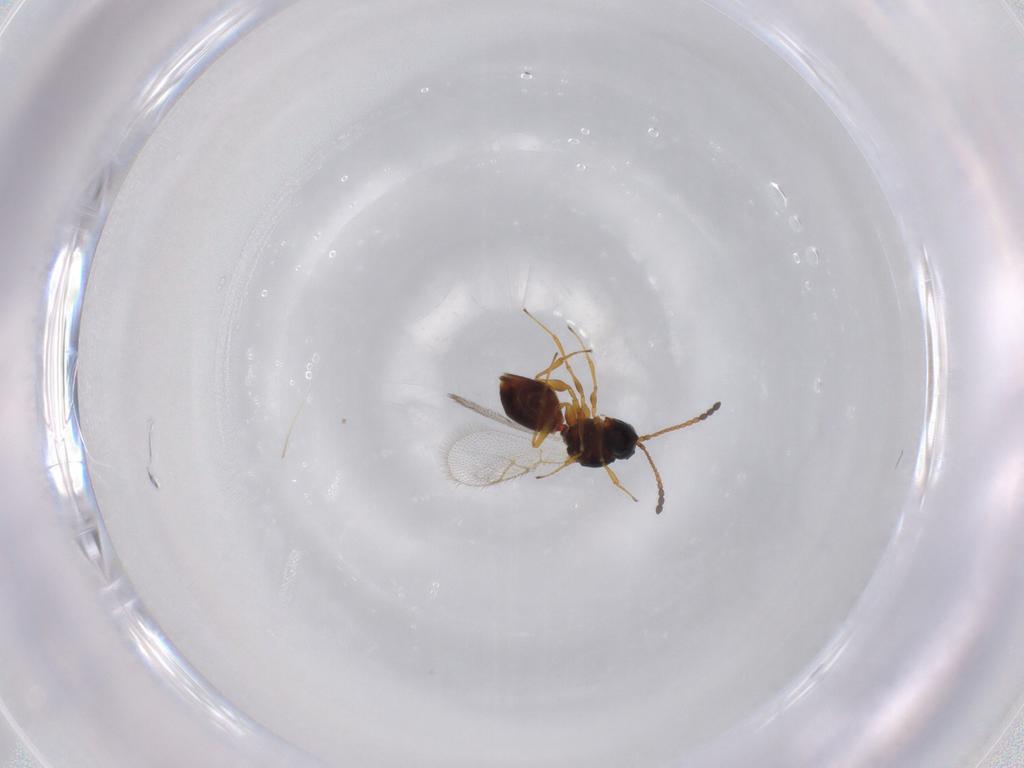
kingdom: Animalia
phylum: Arthropoda
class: Insecta
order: Hymenoptera
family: Figitidae
